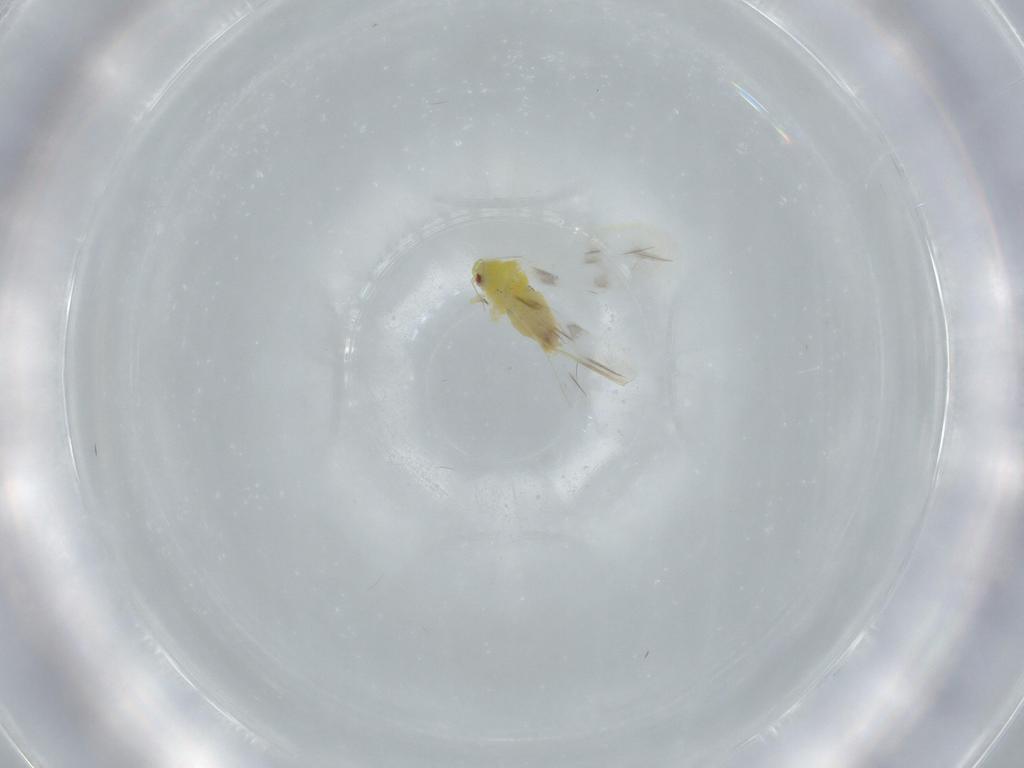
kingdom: Animalia
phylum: Arthropoda
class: Insecta
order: Hemiptera
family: Aleyrodidae
